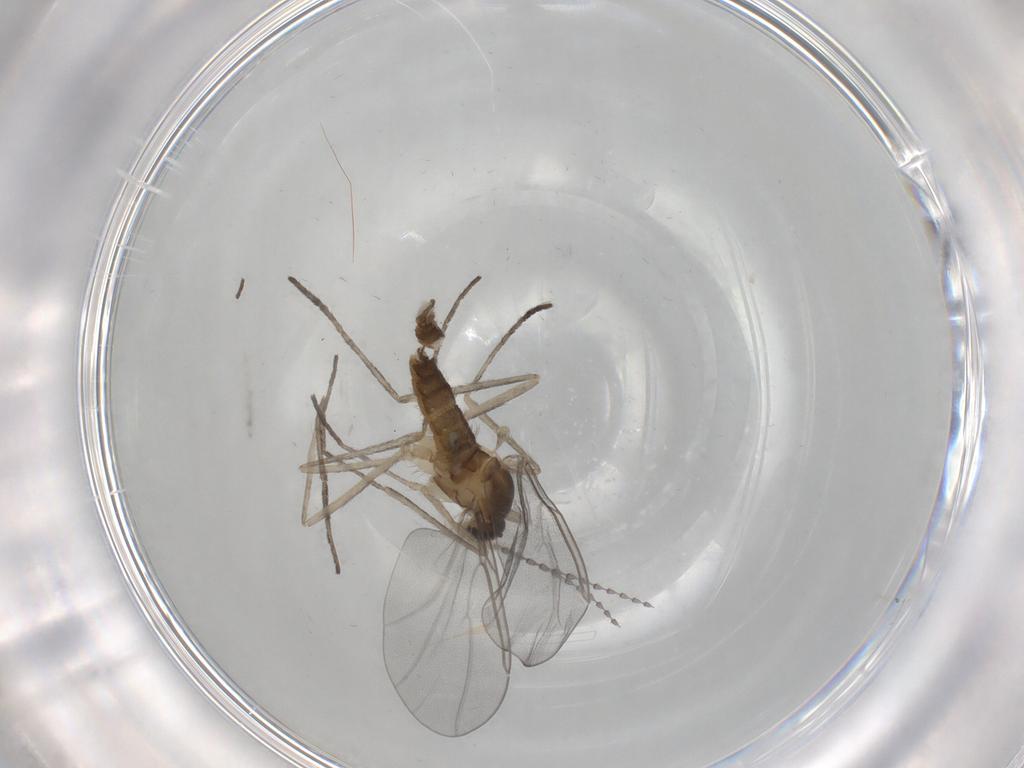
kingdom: Animalia
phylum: Arthropoda
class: Insecta
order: Diptera
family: Cecidomyiidae
